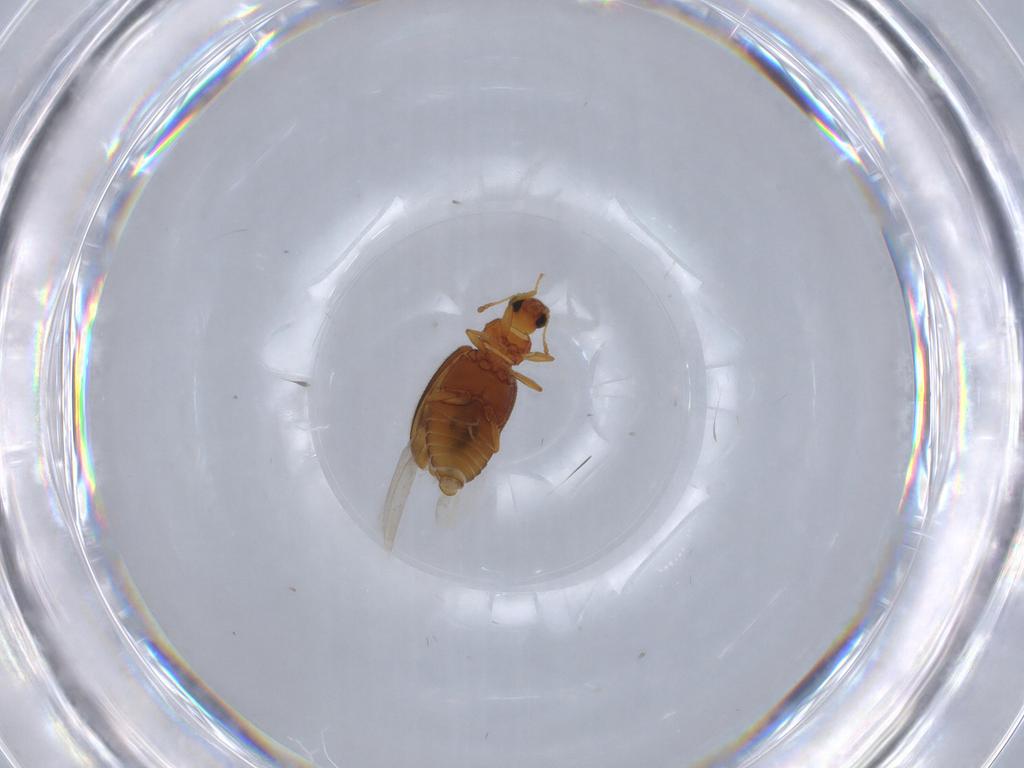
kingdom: Animalia
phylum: Arthropoda
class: Insecta
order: Coleoptera
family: Latridiidae
